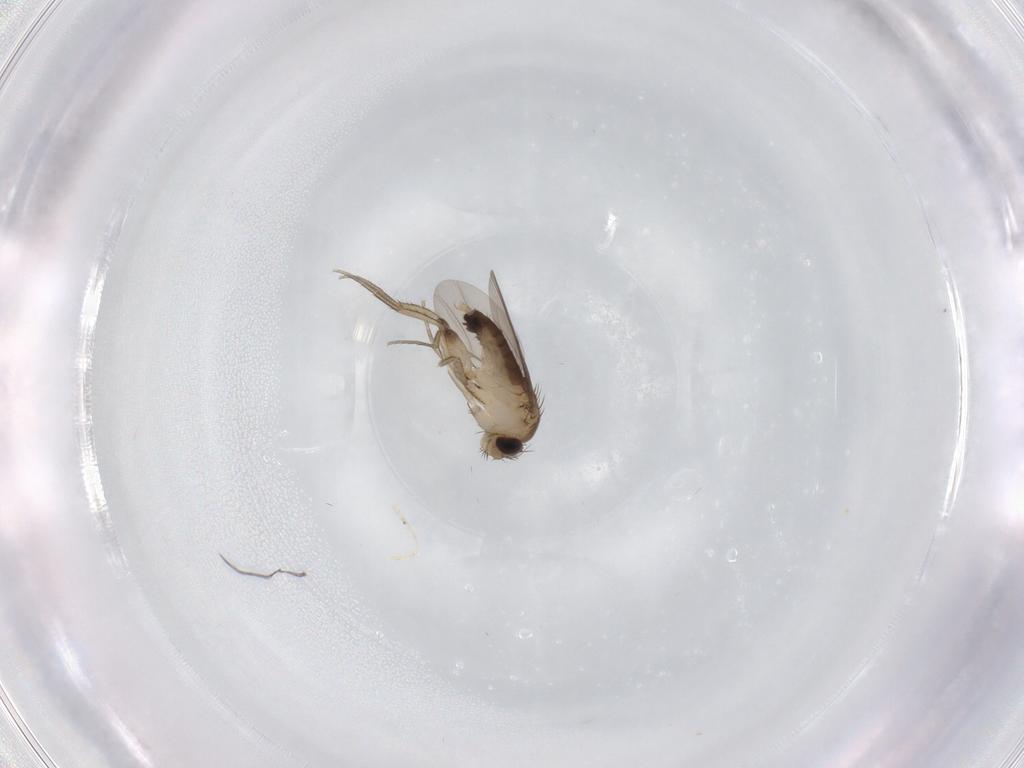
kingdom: Animalia
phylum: Arthropoda
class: Insecta
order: Diptera
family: Phoridae
